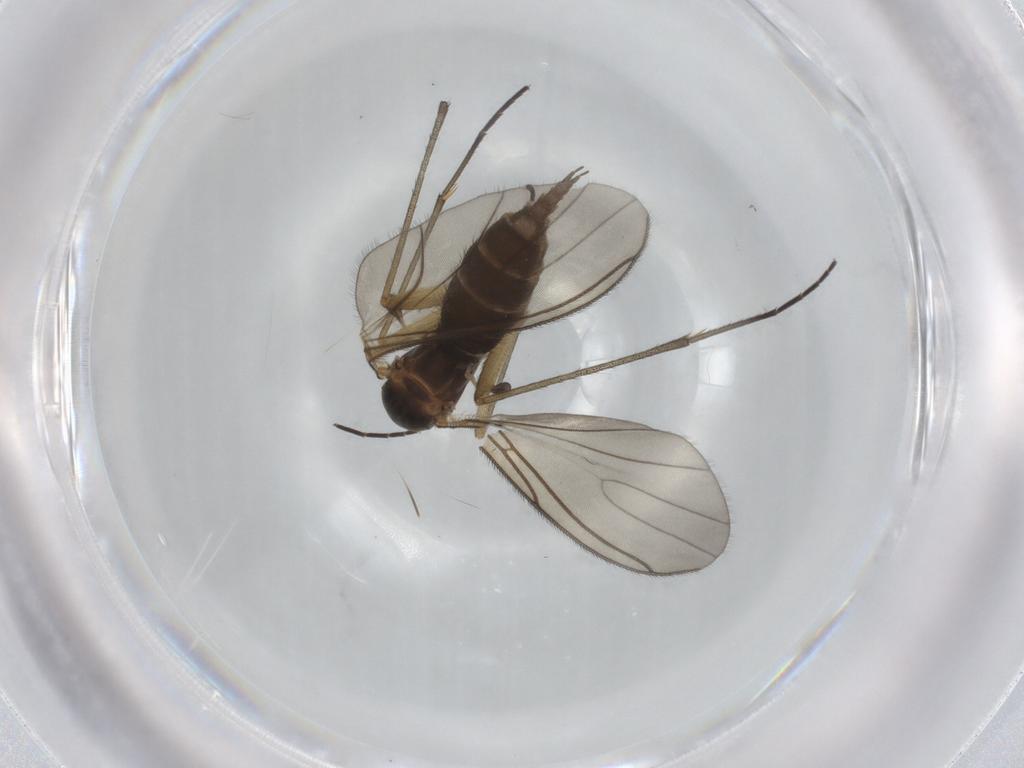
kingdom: Animalia
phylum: Arthropoda
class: Insecta
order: Diptera
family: Sciaridae
